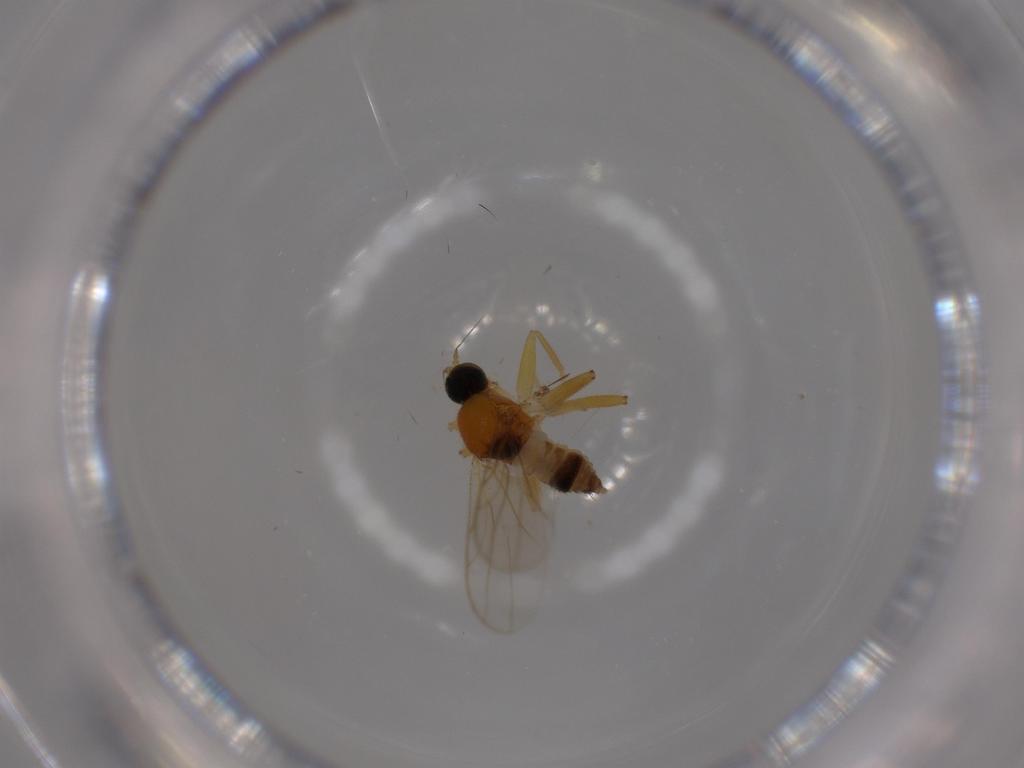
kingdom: Animalia
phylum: Arthropoda
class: Insecta
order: Diptera
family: Hybotidae
